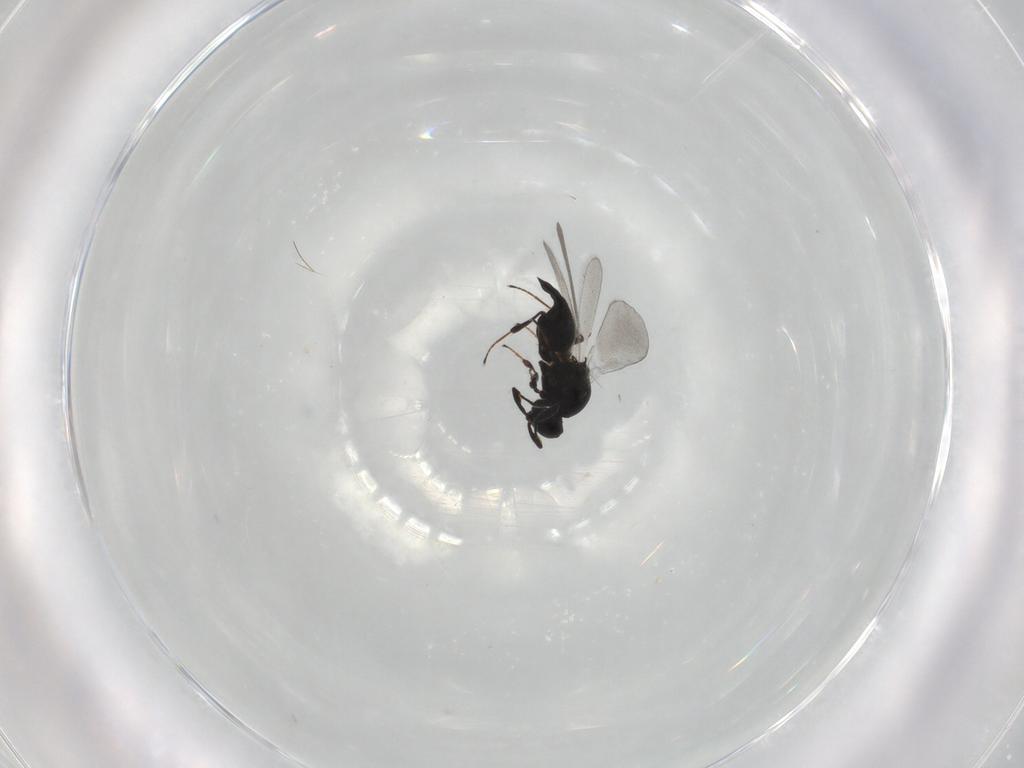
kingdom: Animalia
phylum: Arthropoda
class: Insecta
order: Hymenoptera
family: Platygastridae
